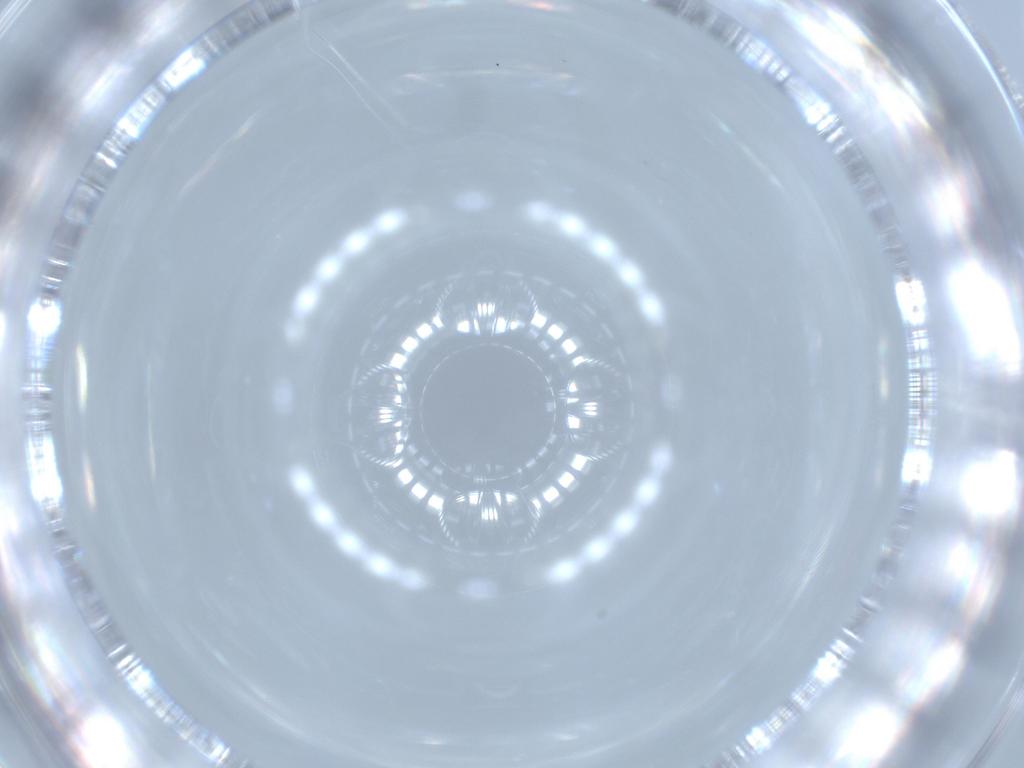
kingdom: Animalia
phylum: Arthropoda
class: Insecta
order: Diptera
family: Sciaridae
